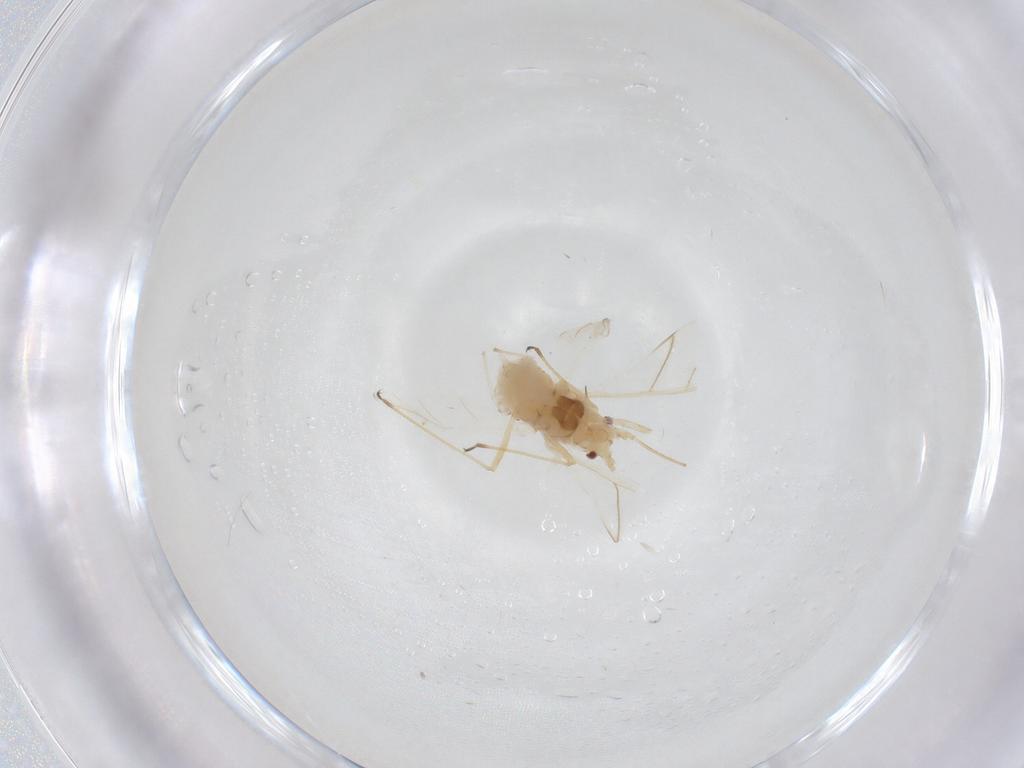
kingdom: Animalia
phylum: Arthropoda
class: Insecta
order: Hemiptera
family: Aphididae
